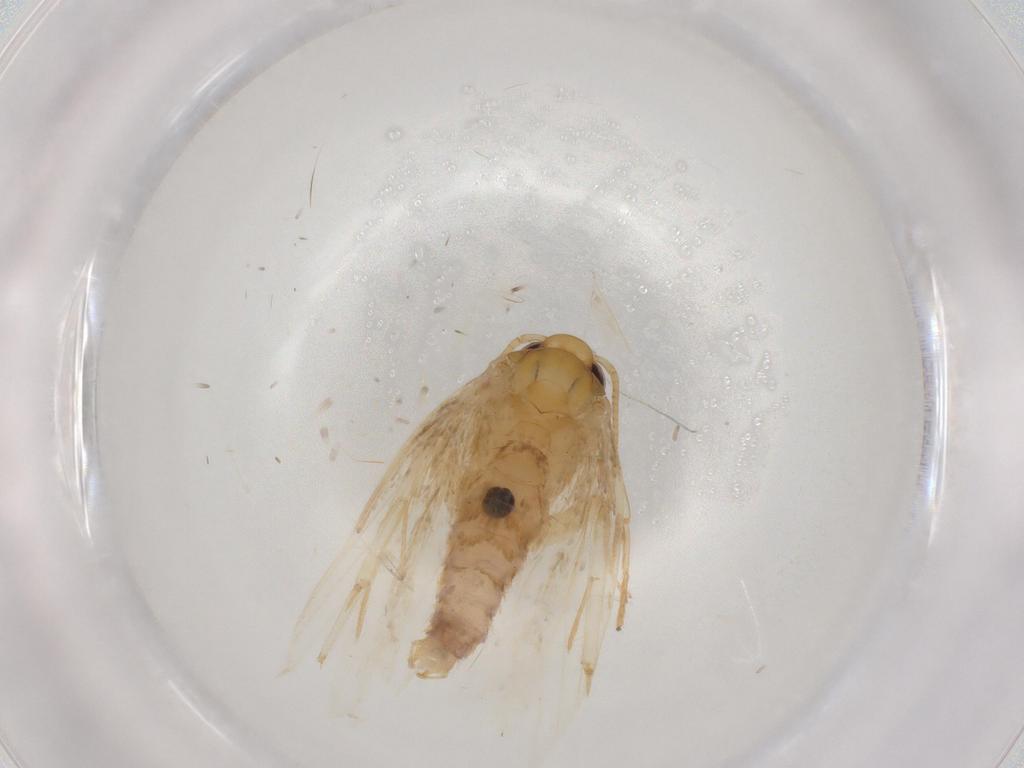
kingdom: Animalia
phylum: Arthropoda
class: Insecta
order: Lepidoptera
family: Depressariidae
